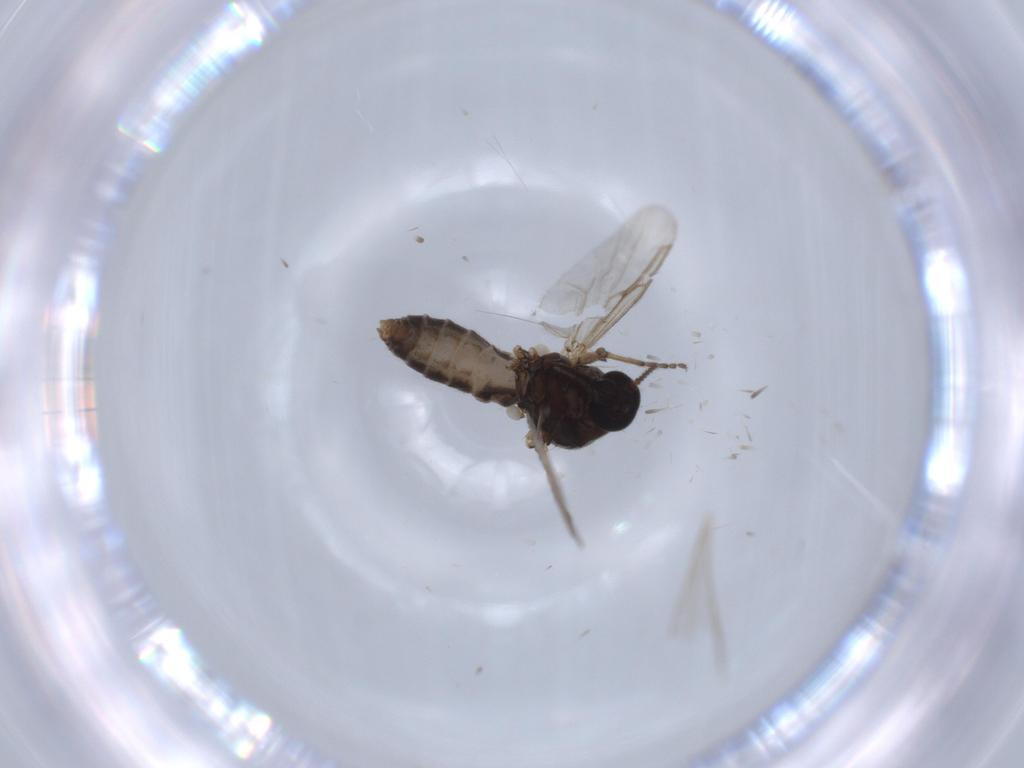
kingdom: Animalia
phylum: Arthropoda
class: Insecta
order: Diptera
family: Ceratopogonidae
